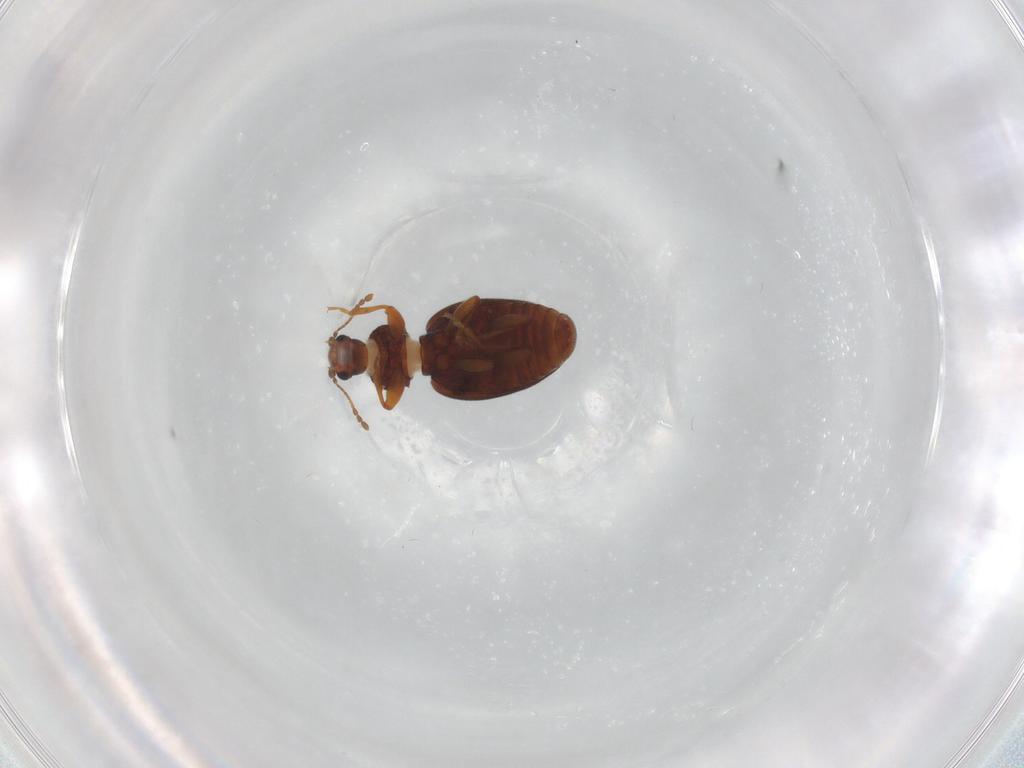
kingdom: Animalia
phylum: Arthropoda
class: Insecta
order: Coleoptera
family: Latridiidae
